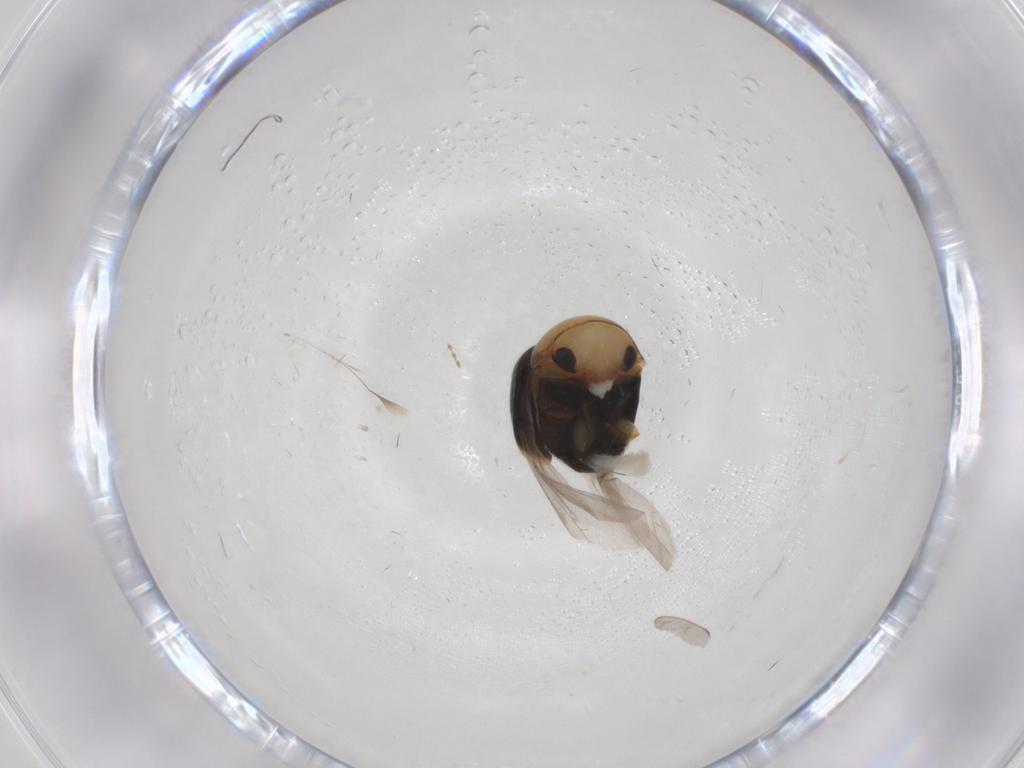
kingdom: Animalia
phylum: Arthropoda
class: Insecta
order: Coleoptera
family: Cybocephalidae
